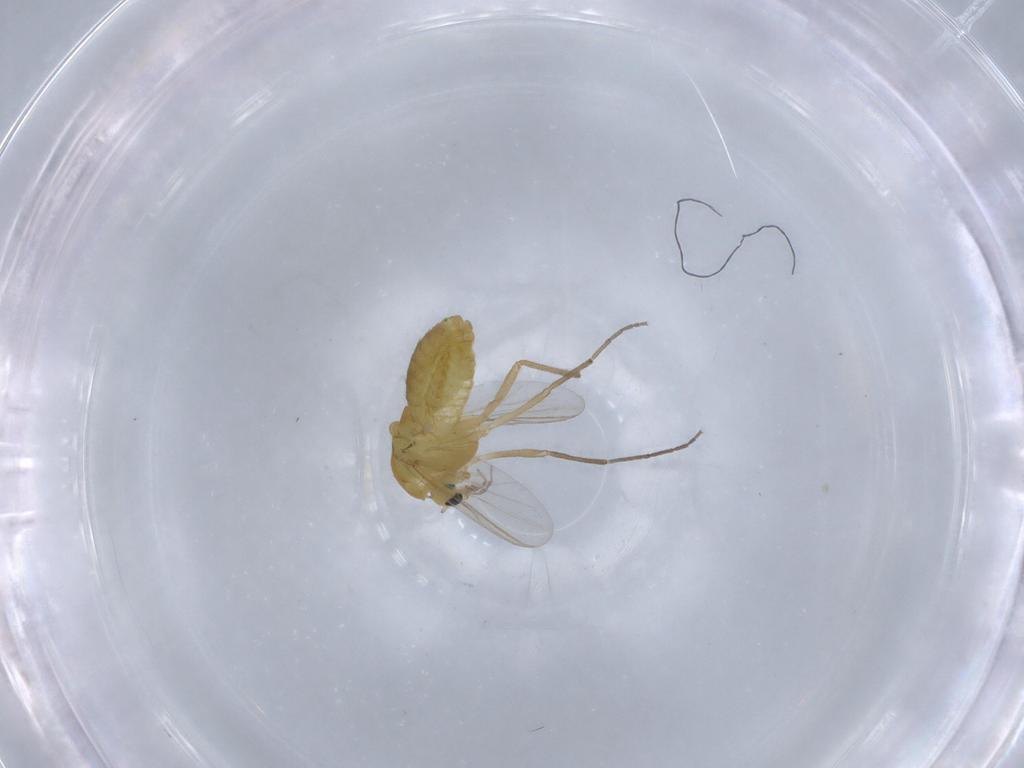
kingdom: Animalia
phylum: Arthropoda
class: Insecta
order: Diptera
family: Chironomidae
